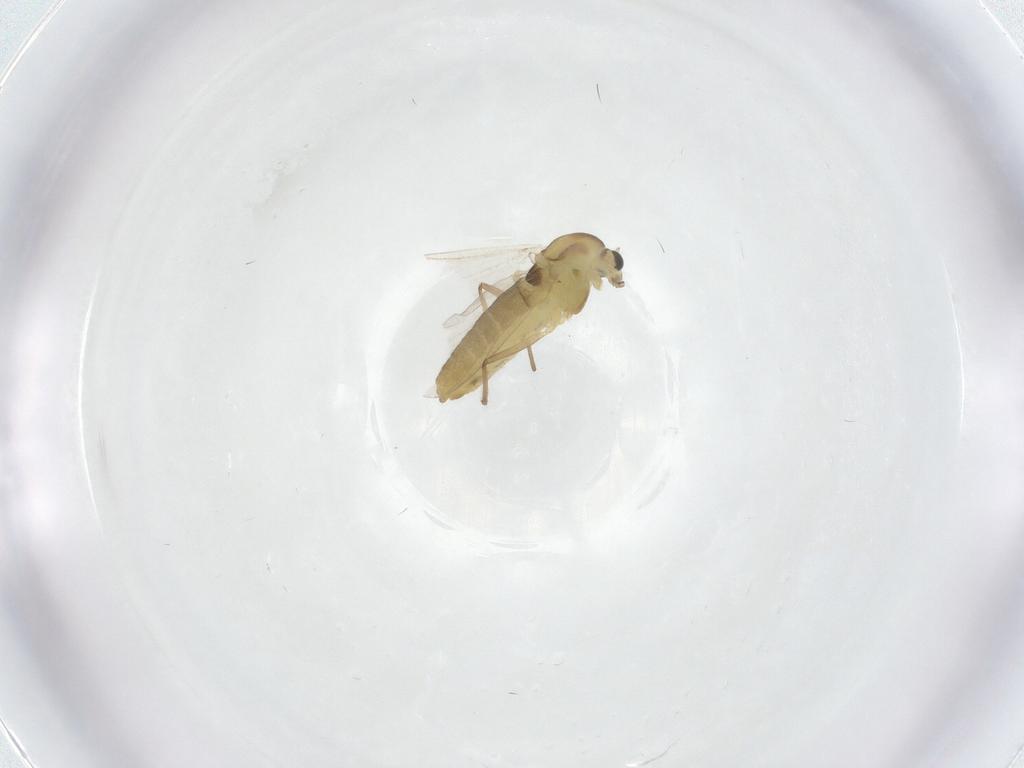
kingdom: Animalia
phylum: Arthropoda
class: Insecta
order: Diptera
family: Chironomidae
